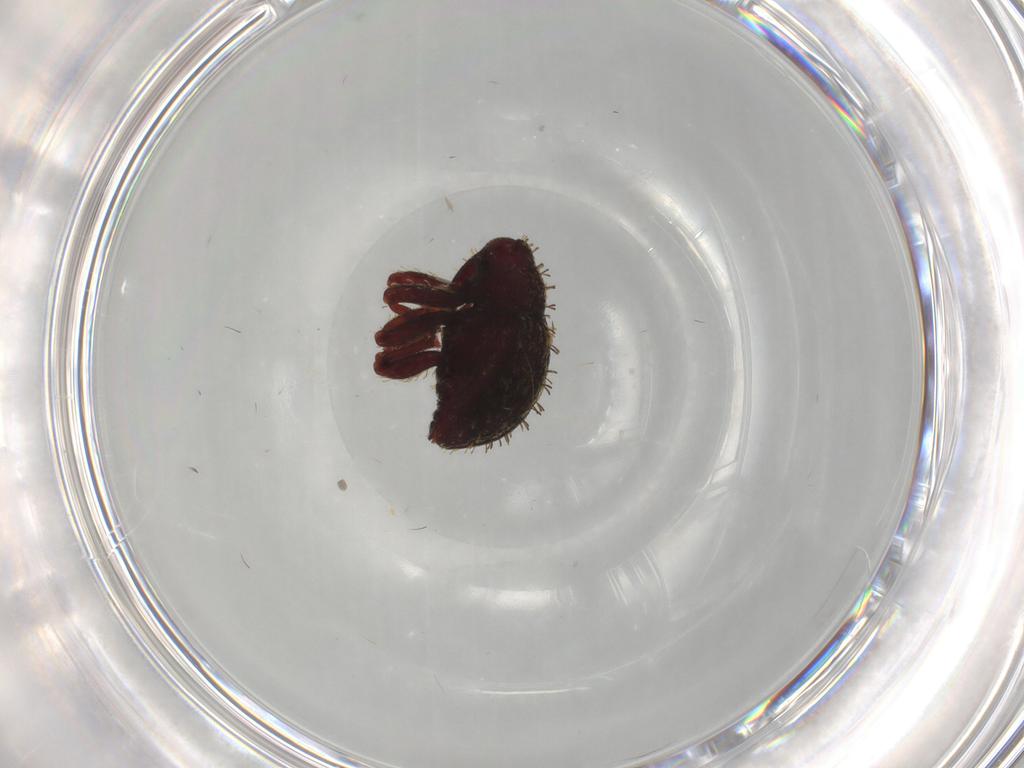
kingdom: Animalia
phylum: Arthropoda
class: Insecta
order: Coleoptera
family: Curculionidae
